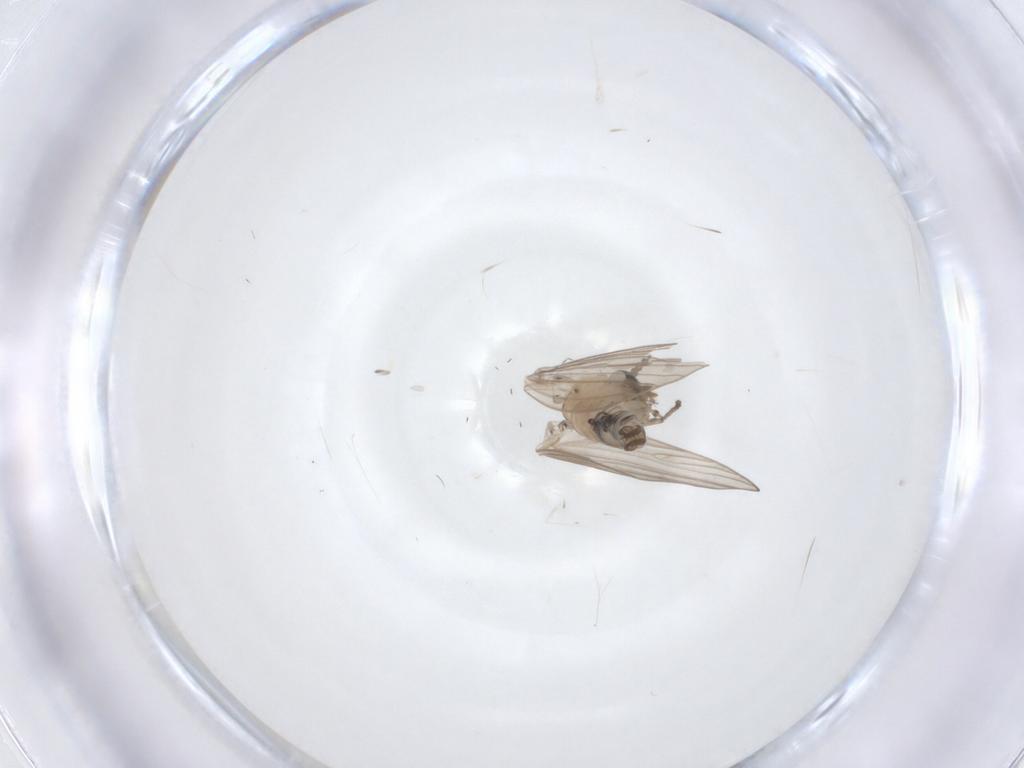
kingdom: Animalia
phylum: Arthropoda
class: Insecta
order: Diptera
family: Psychodidae
